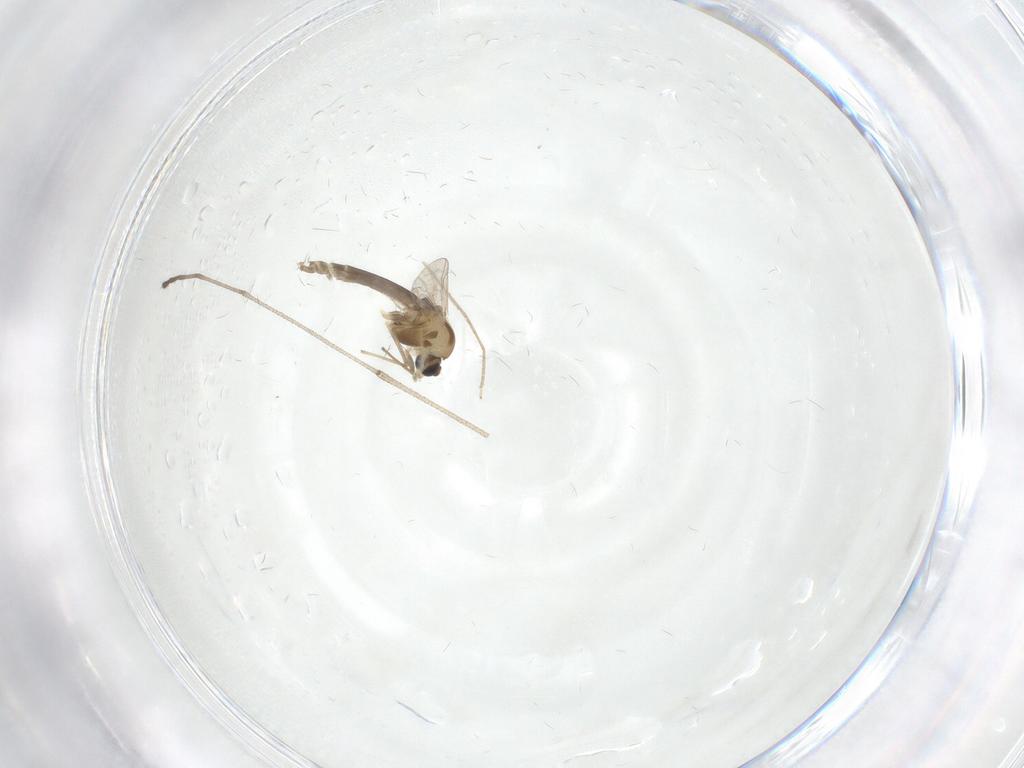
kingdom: Animalia
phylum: Arthropoda
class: Insecta
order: Diptera
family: Chironomidae
